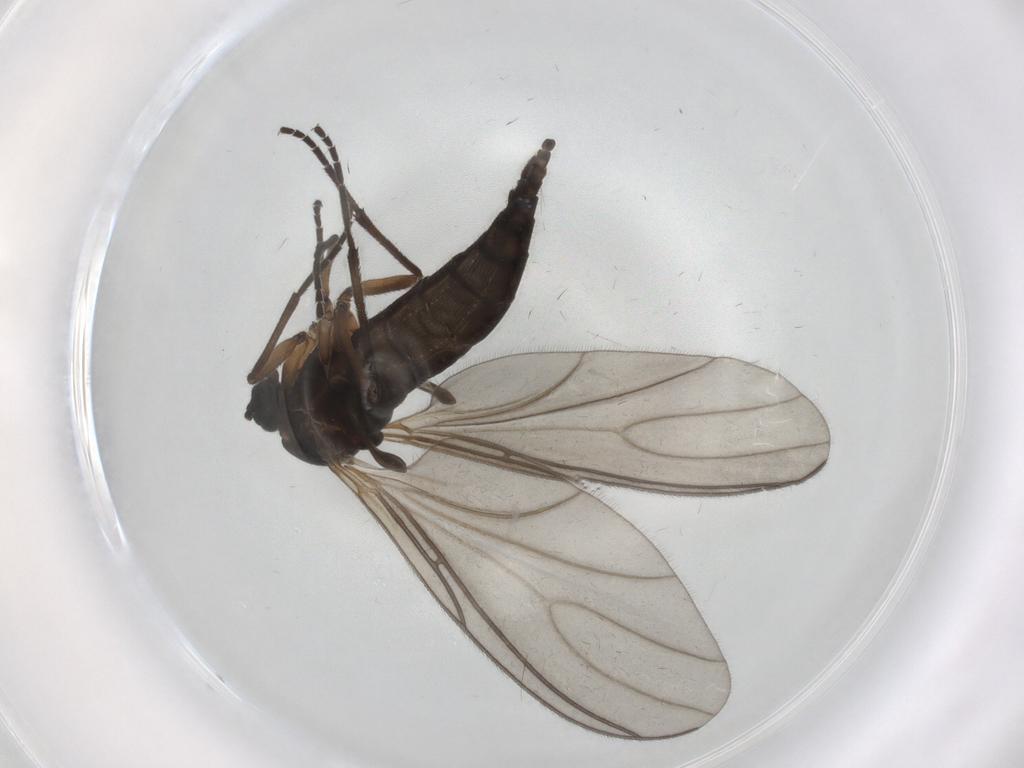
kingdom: Animalia
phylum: Arthropoda
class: Insecta
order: Diptera
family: Sciaridae
